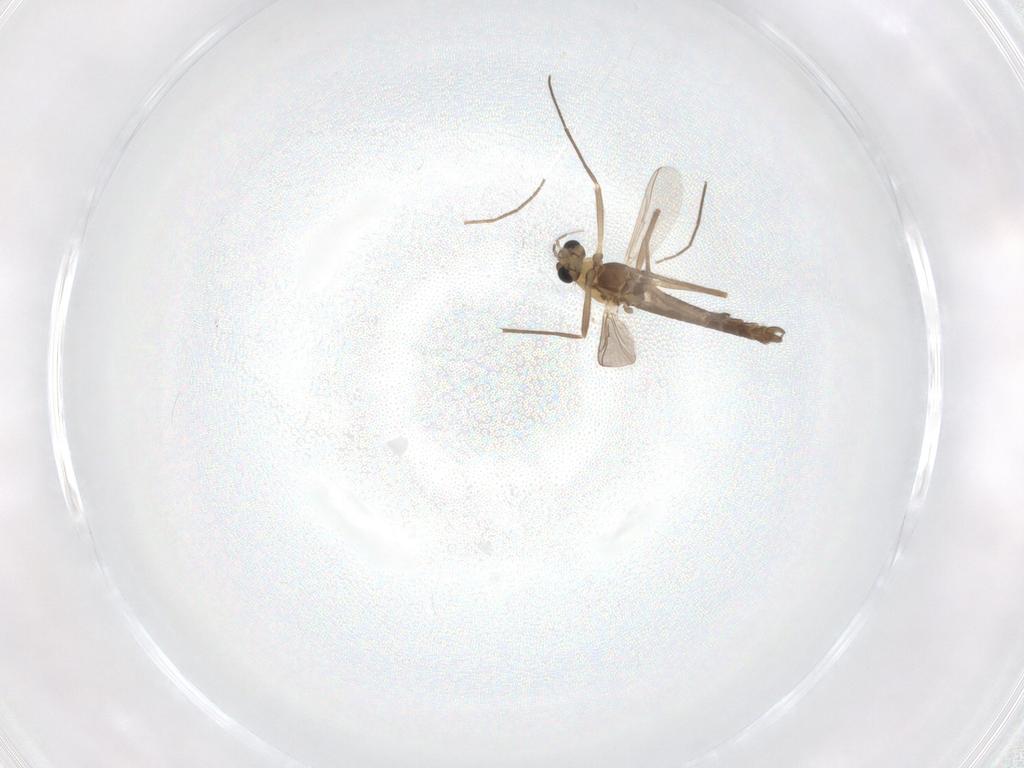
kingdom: Animalia
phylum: Arthropoda
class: Insecta
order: Diptera
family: Chironomidae
